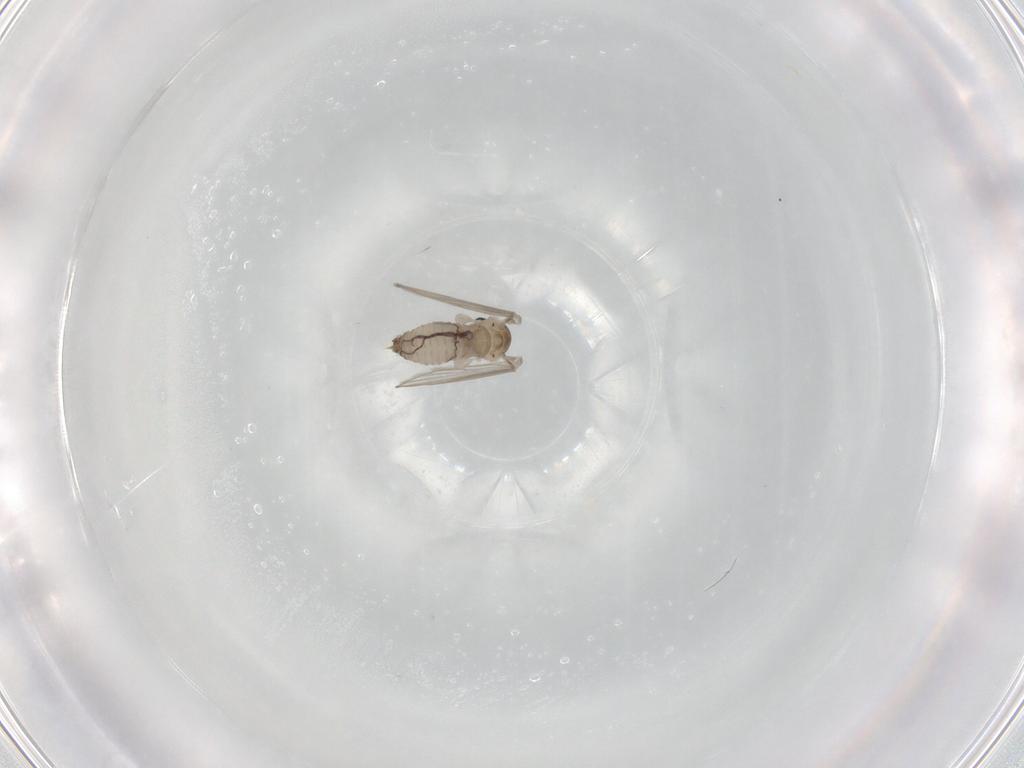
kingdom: Animalia
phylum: Arthropoda
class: Insecta
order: Diptera
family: Psychodidae
